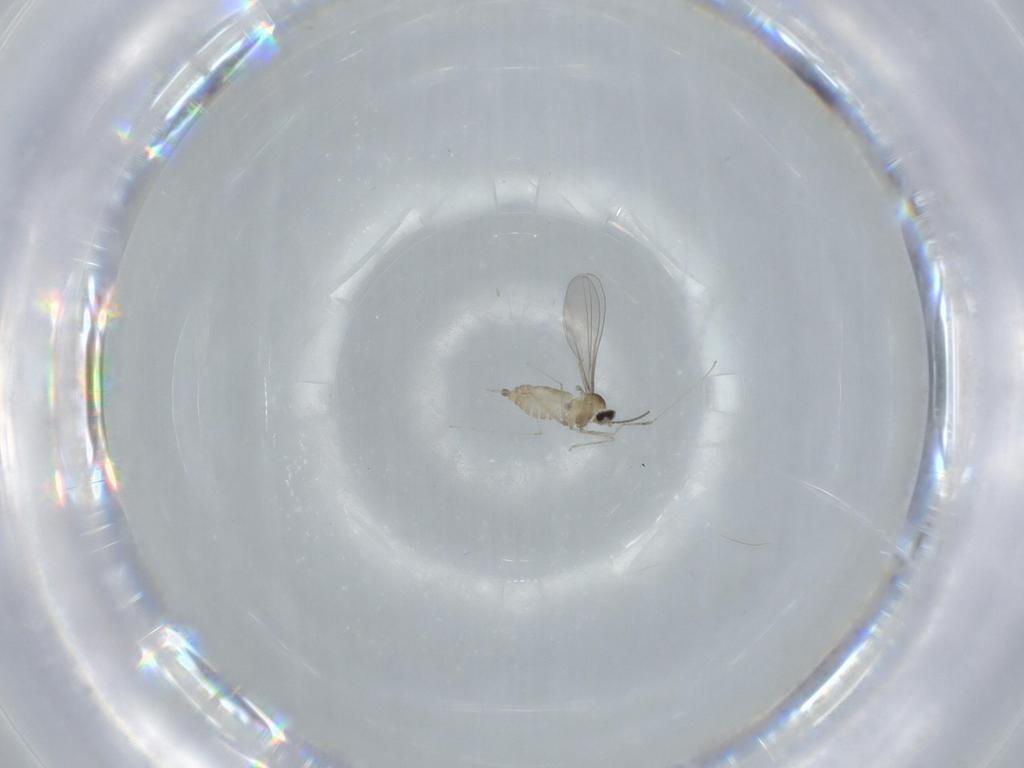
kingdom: Animalia
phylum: Arthropoda
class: Insecta
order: Diptera
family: Cecidomyiidae
